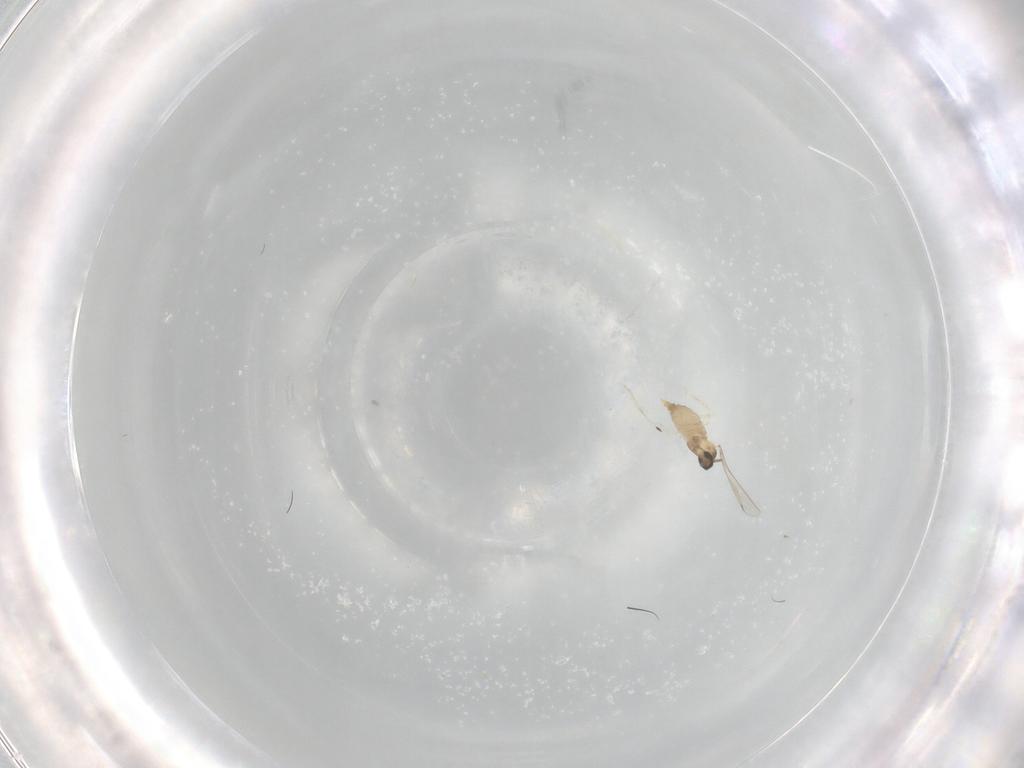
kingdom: Animalia
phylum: Arthropoda
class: Insecta
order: Diptera
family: Cecidomyiidae
